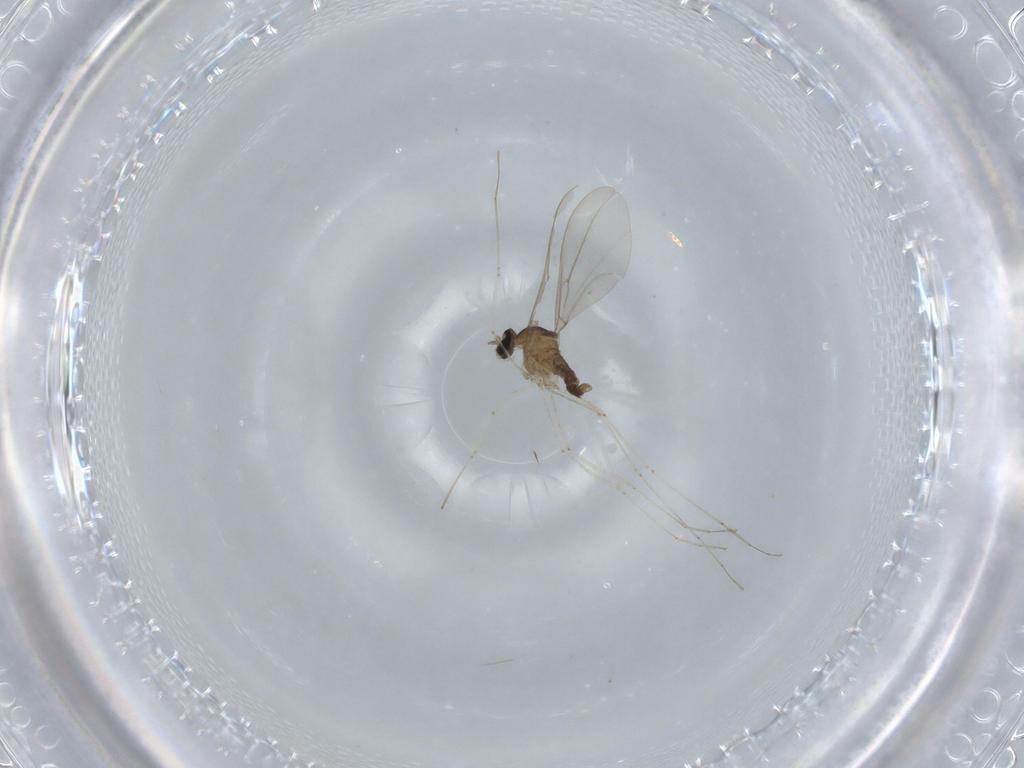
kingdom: Animalia
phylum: Arthropoda
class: Insecta
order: Diptera
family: Cecidomyiidae
